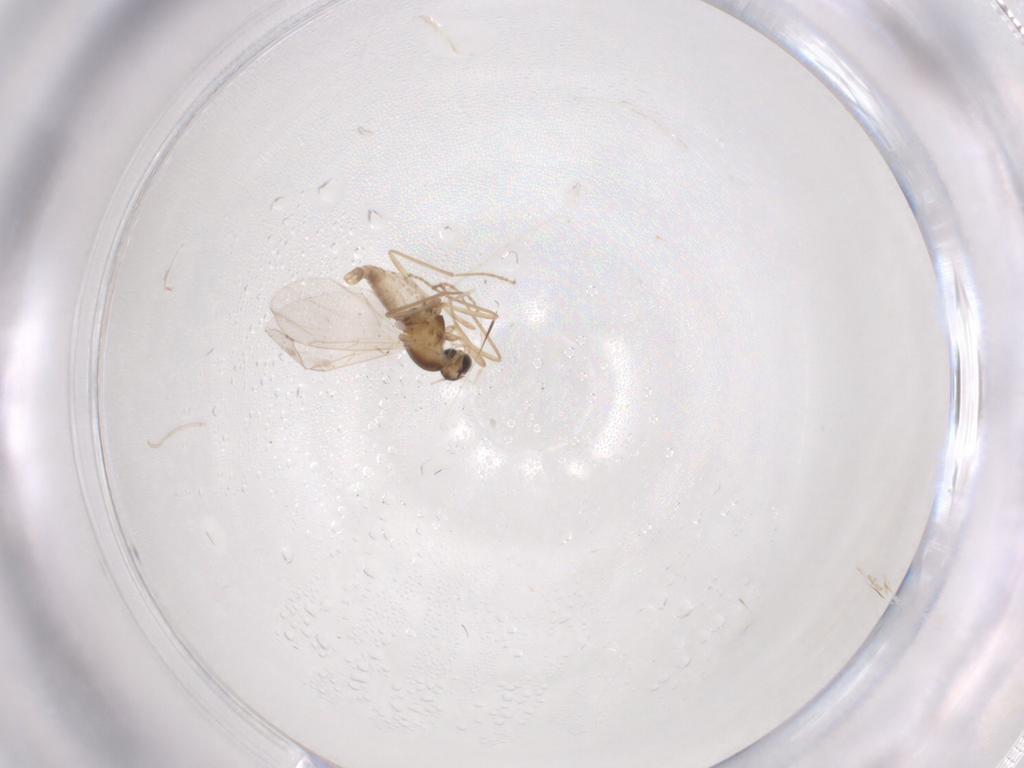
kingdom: Animalia
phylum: Arthropoda
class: Insecta
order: Diptera
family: Cecidomyiidae
